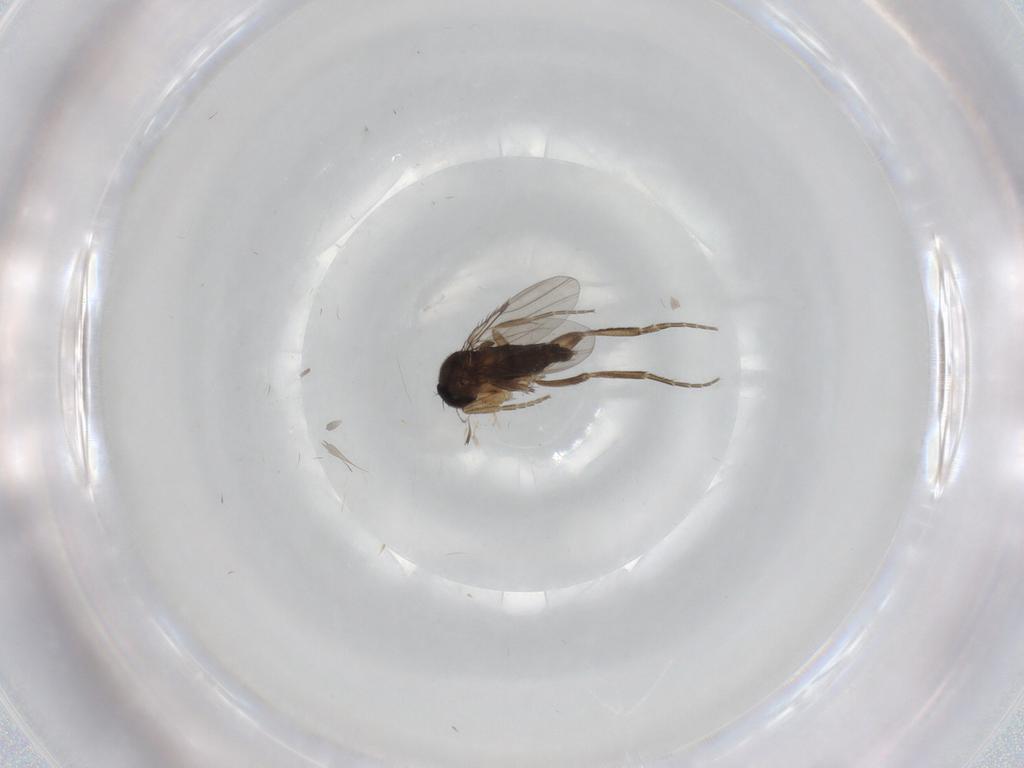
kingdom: Animalia
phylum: Arthropoda
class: Insecta
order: Diptera
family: Phoridae
